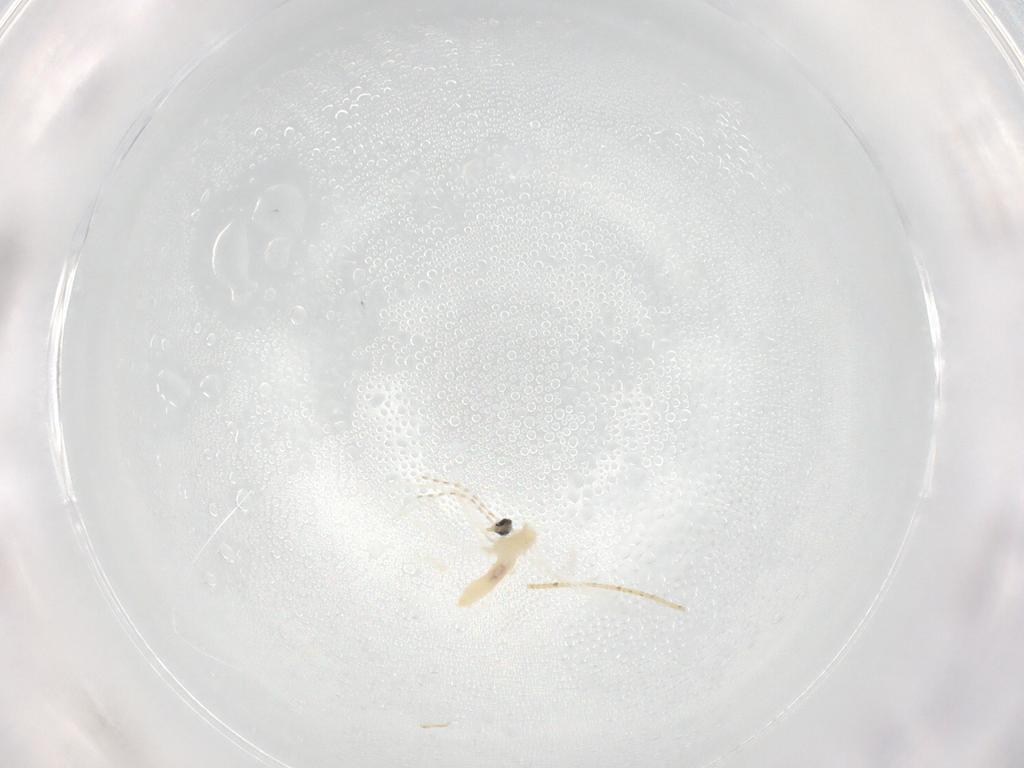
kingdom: Animalia
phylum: Arthropoda
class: Insecta
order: Diptera
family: Cecidomyiidae
